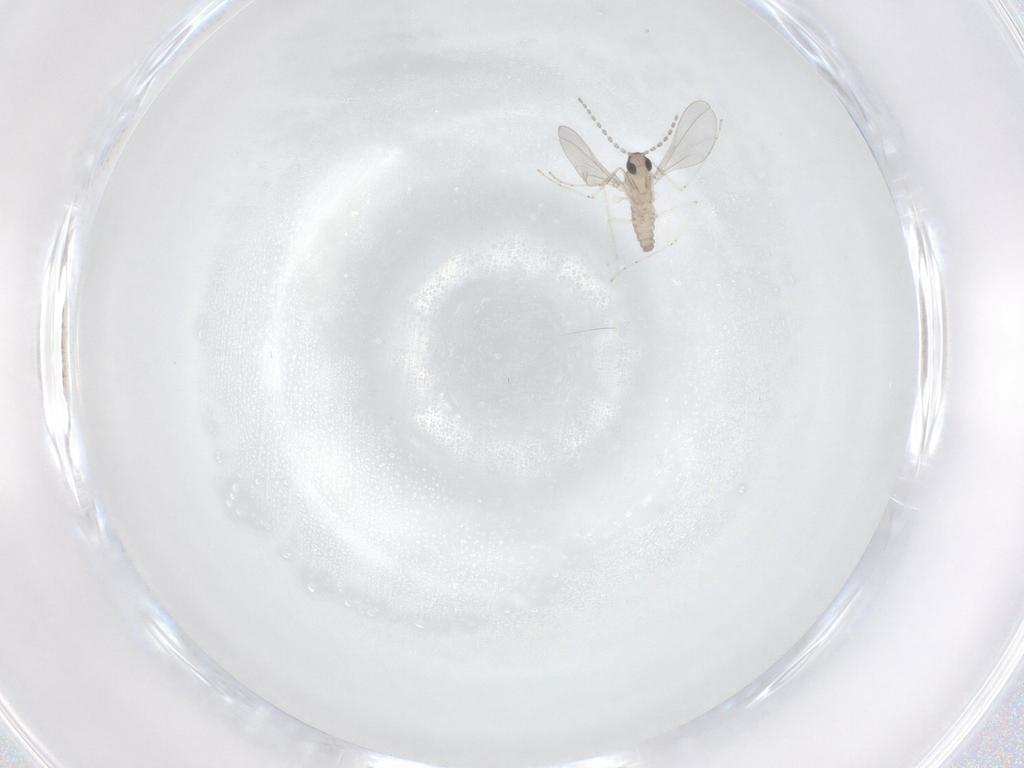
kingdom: Animalia
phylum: Arthropoda
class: Insecta
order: Diptera
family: Cecidomyiidae
